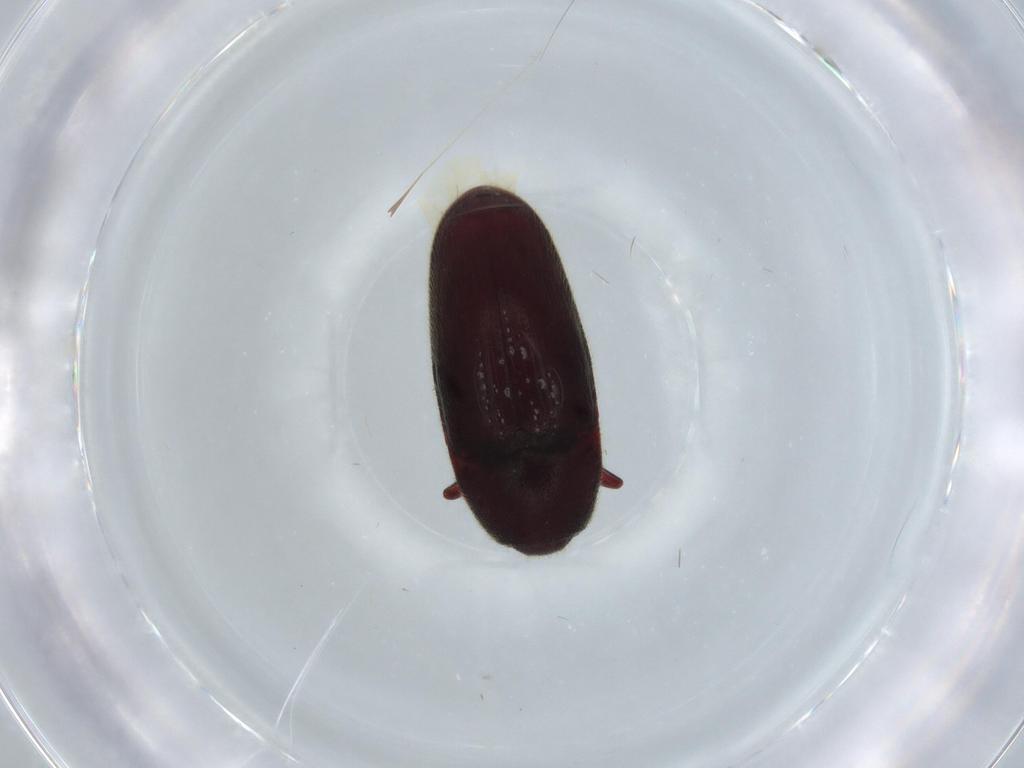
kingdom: Animalia
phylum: Arthropoda
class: Insecta
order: Coleoptera
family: Throscidae
